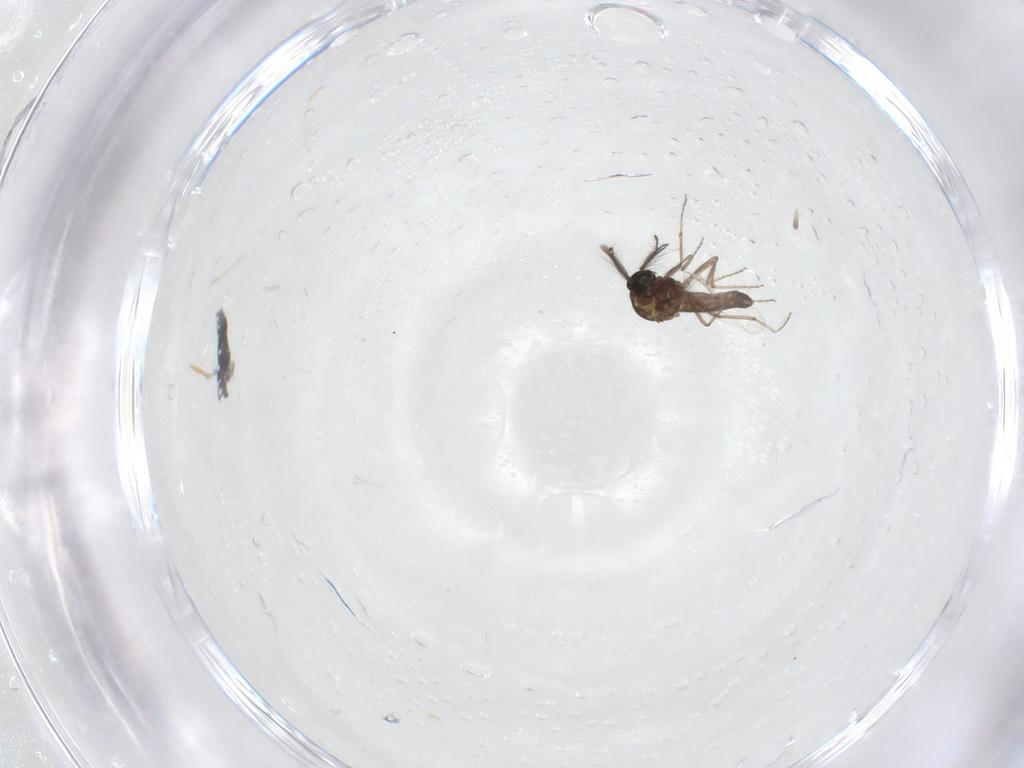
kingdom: Animalia
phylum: Arthropoda
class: Insecta
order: Diptera
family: Ceratopogonidae
